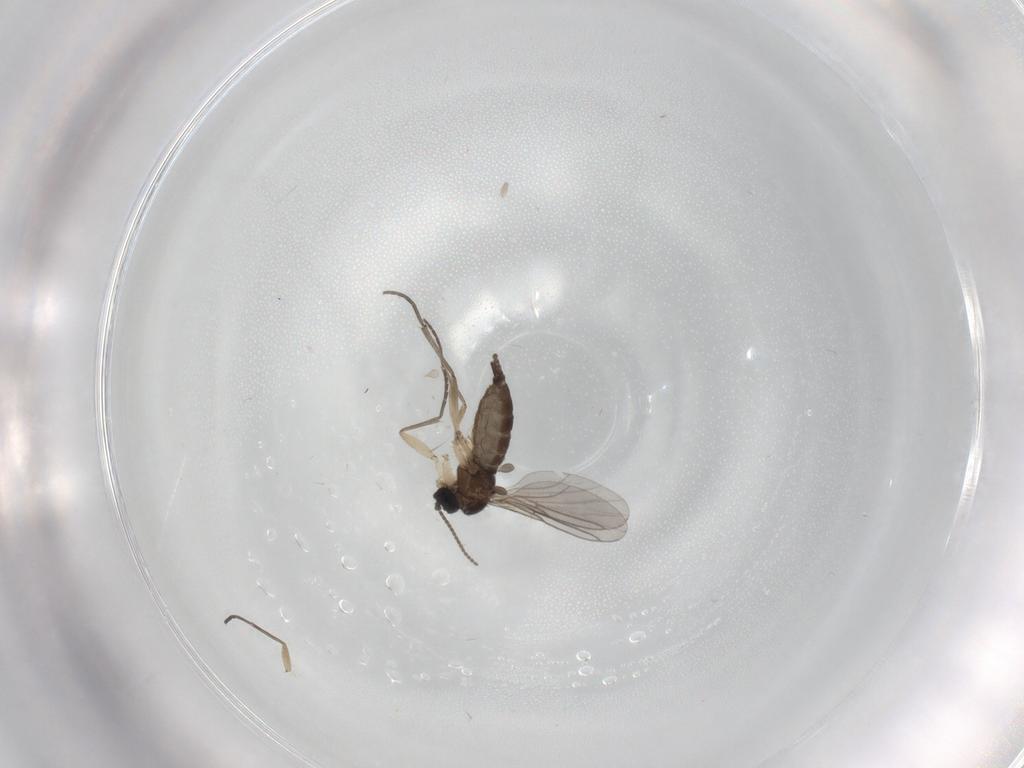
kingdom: Animalia
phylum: Arthropoda
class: Insecta
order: Diptera
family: Sciaridae
